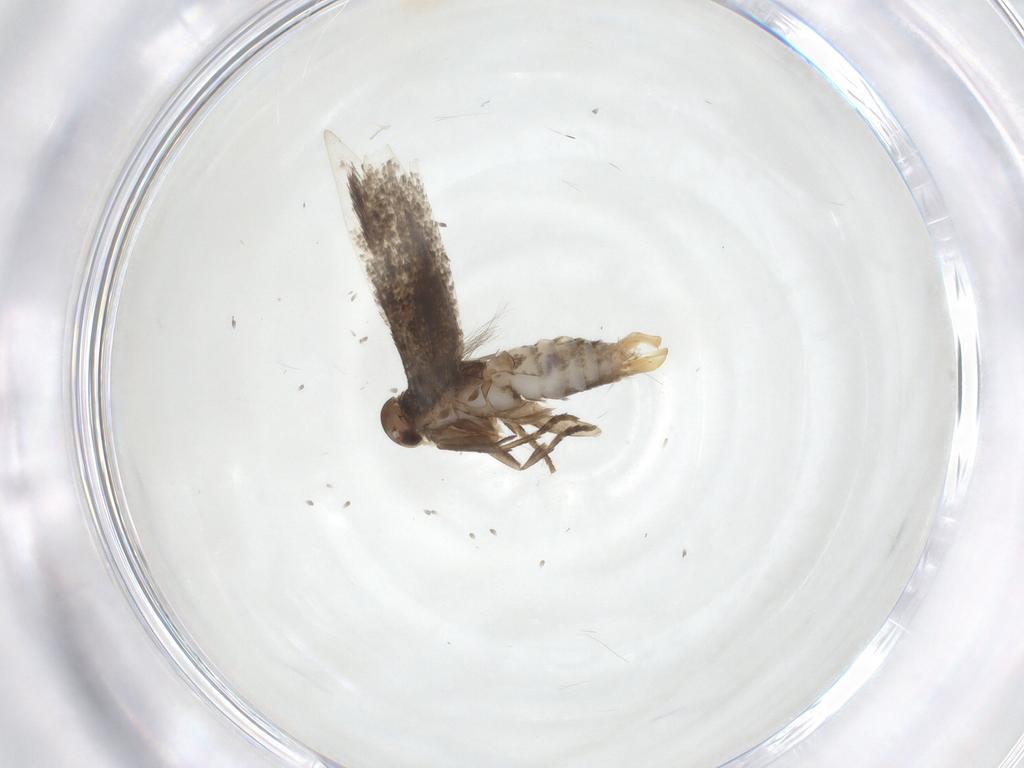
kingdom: Animalia
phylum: Arthropoda
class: Insecta
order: Lepidoptera
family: Elachistidae
